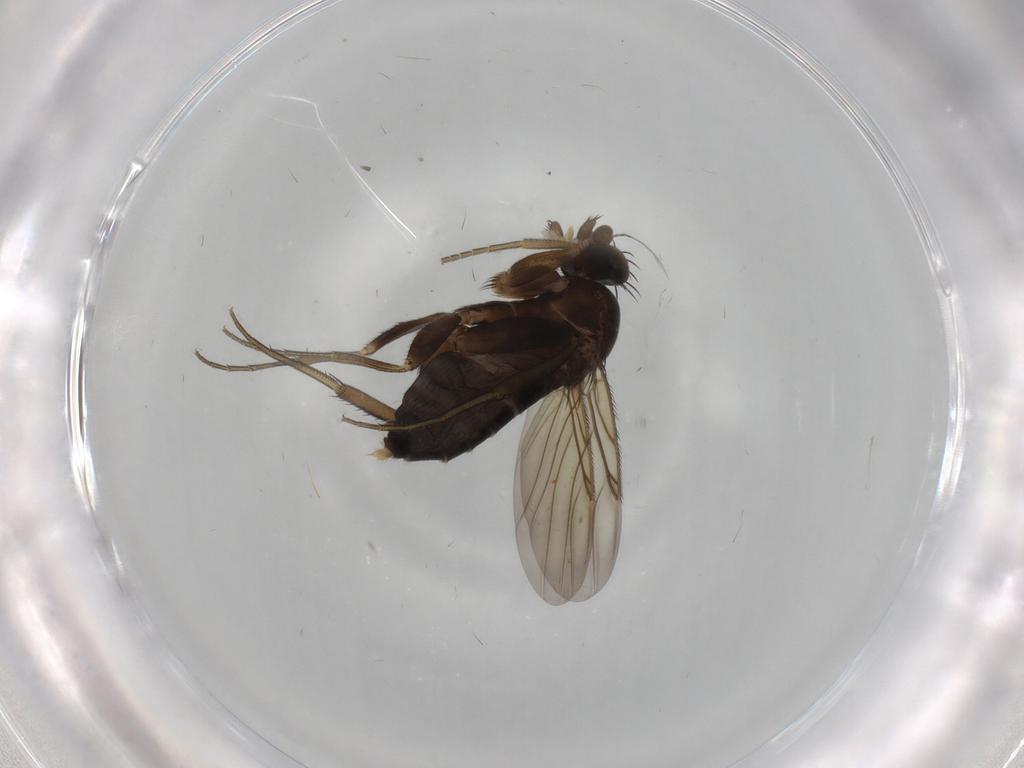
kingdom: Animalia
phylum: Arthropoda
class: Insecta
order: Diptera
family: Phoridae
